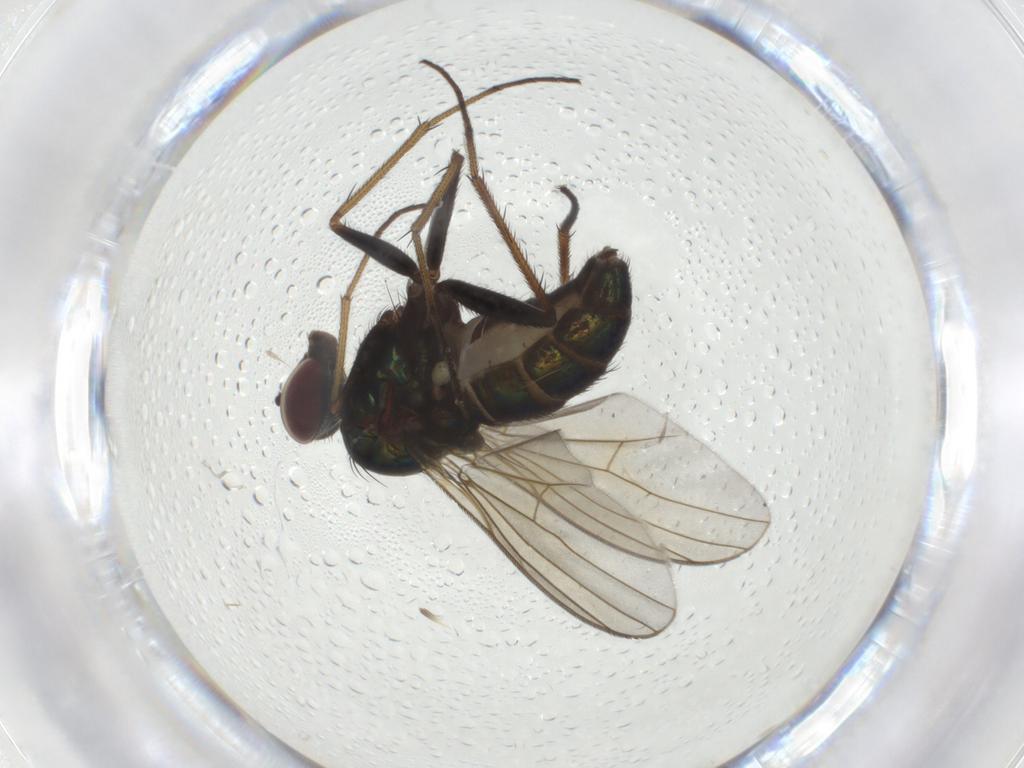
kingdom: Animalia
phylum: Arthropoda
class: Insecta
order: Diptera
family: Dolichopodidae
